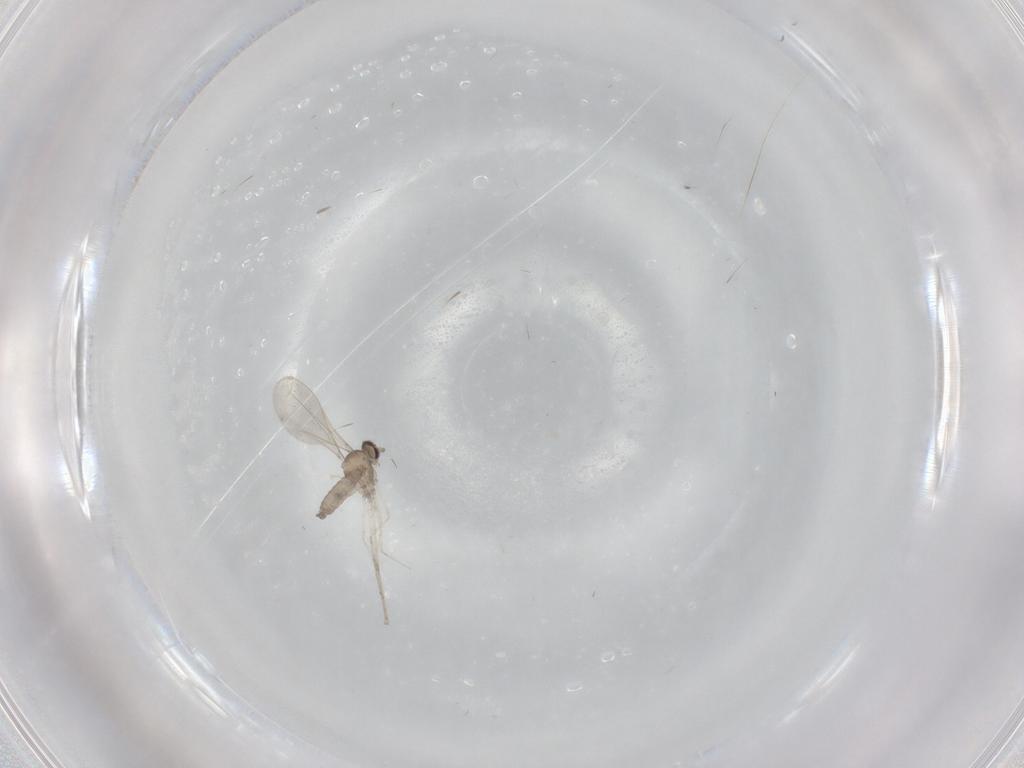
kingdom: Animalia
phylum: Arthropoda
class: Insecta
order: Diptera
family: Cecidomyiidae
